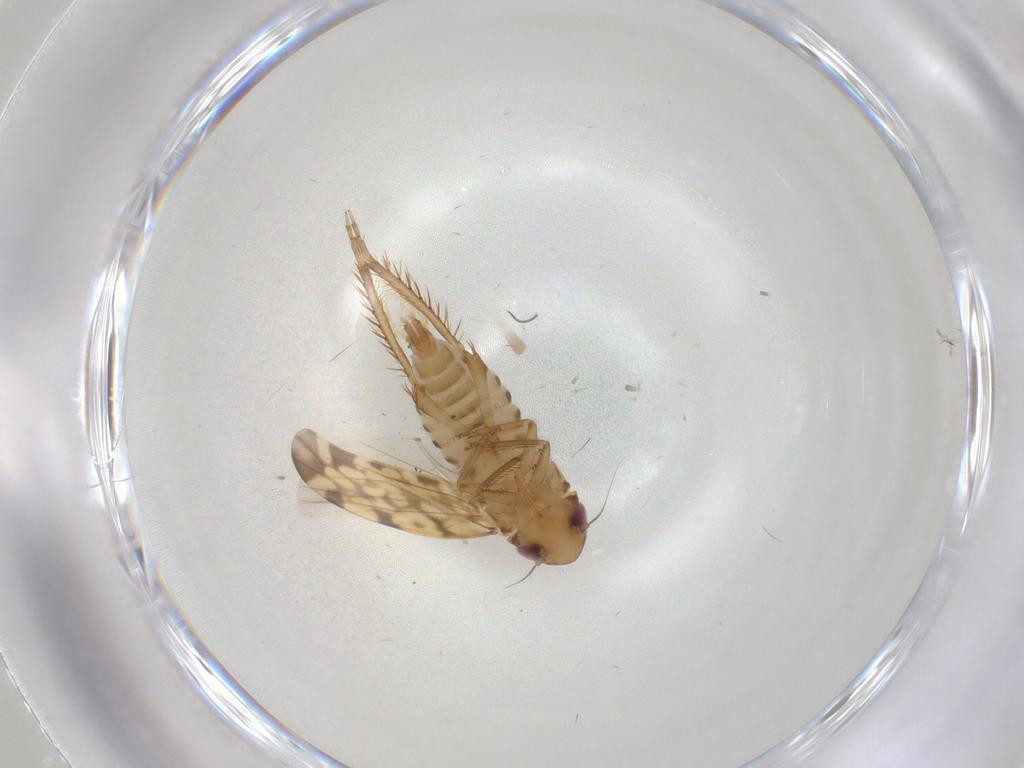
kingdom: Animalia
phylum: Arthropoda
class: Insecta
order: Hemiptera
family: Cicadellidae
